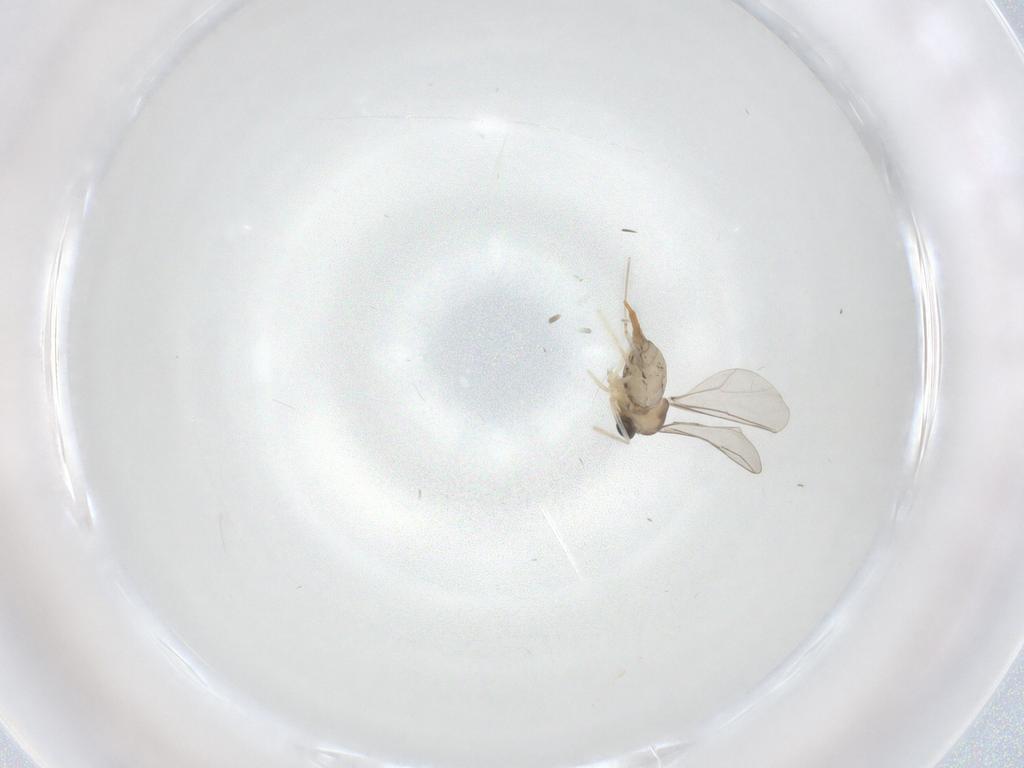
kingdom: Animalia
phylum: Arthropoda
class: Insecta
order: Diptera
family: Cecidomyiidae
